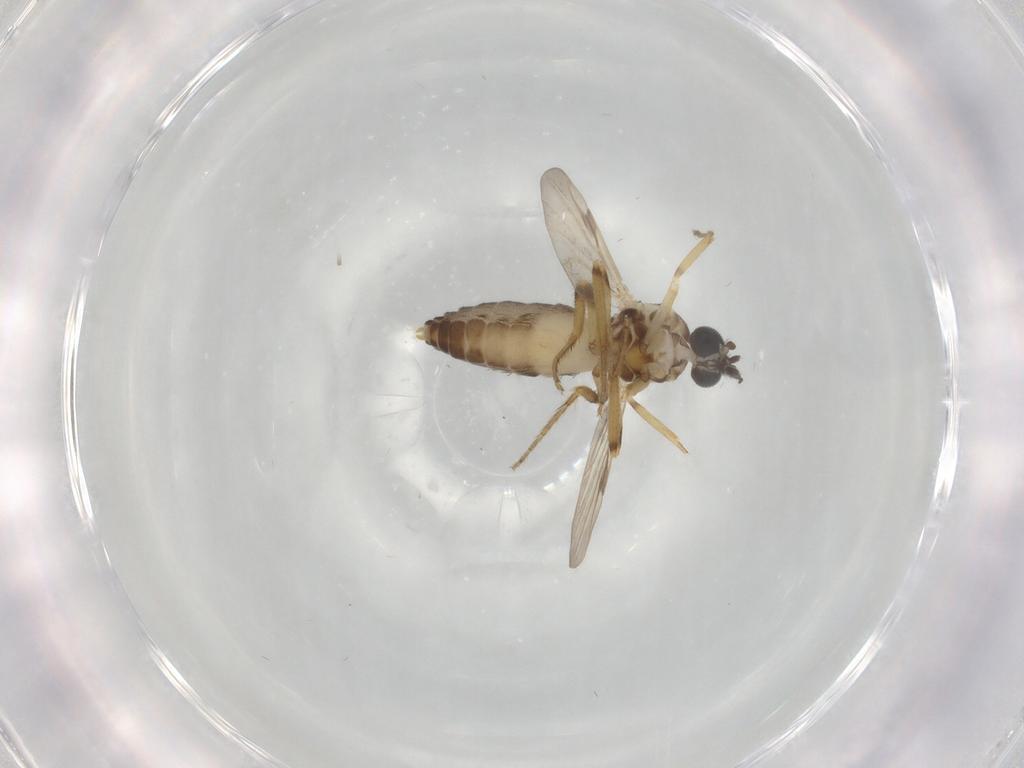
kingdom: Animalia
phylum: Arthropoda
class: Insecta
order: Diptera
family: Ceratopogonidae
